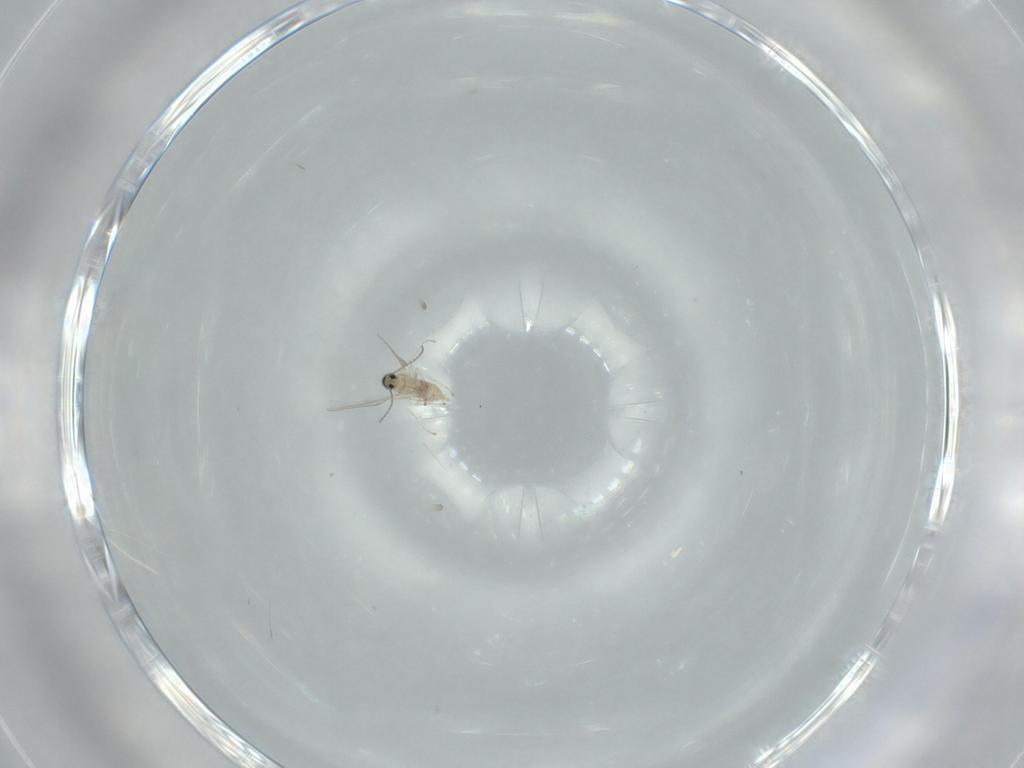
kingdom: Animalia
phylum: Arthropoda
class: Insecta
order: Diptera
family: Cecidomyiidae
